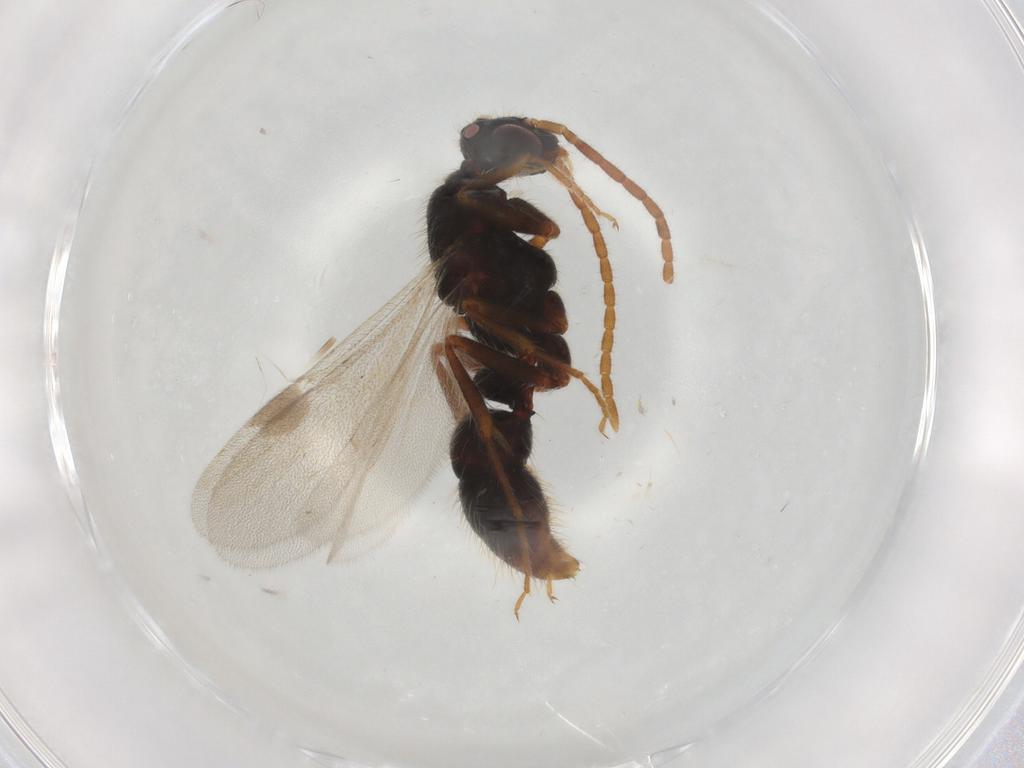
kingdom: Animalia
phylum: Arthropoda
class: Insecta
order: Hymenoptera
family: Formicidae
